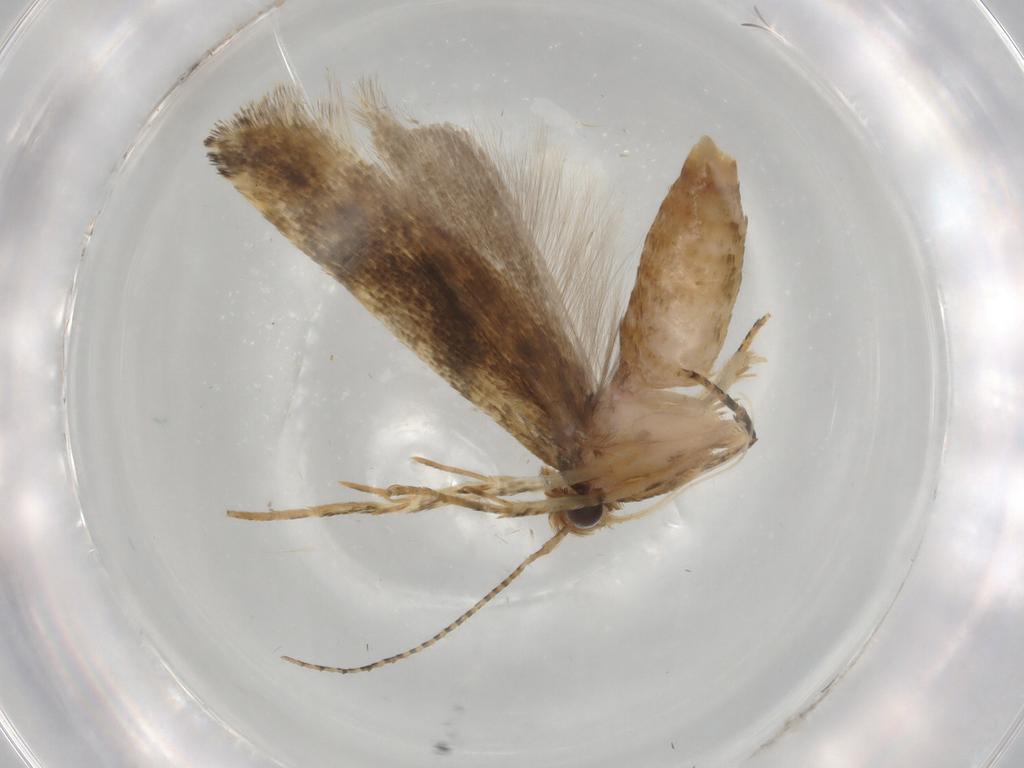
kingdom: Animalia
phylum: Arthropoda
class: Insecta
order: Lepidoptera
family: Gelechiidae
